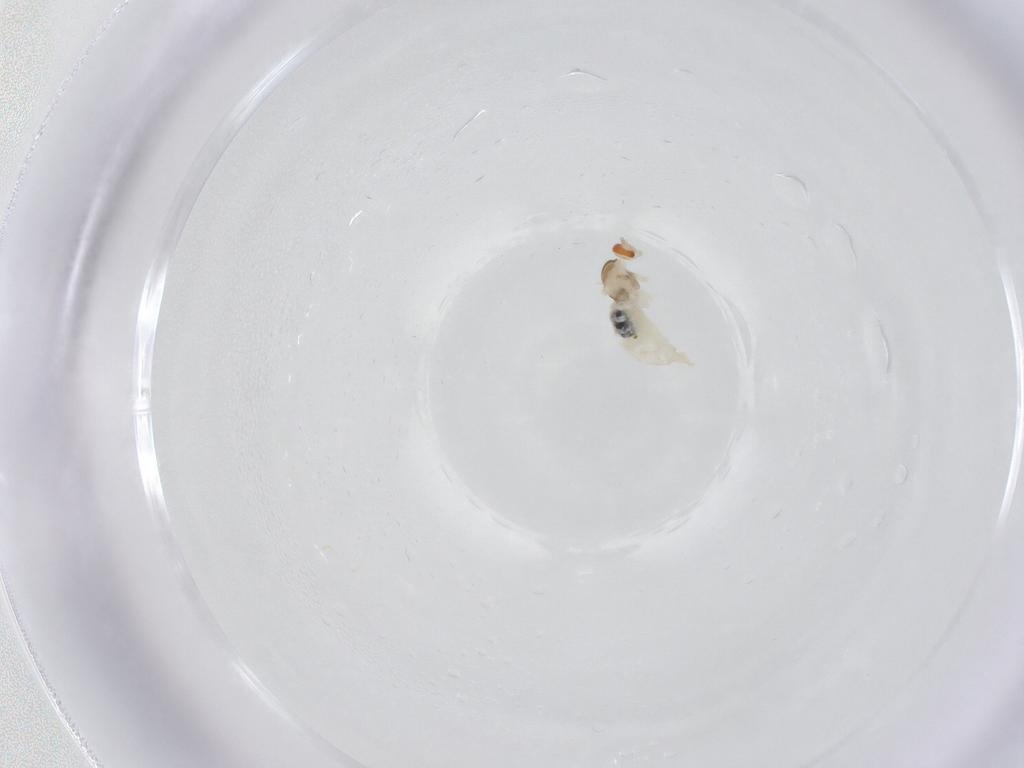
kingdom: Animalia
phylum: Arthropoda
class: Insecta
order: Diptera
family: Cecidomyiidae
